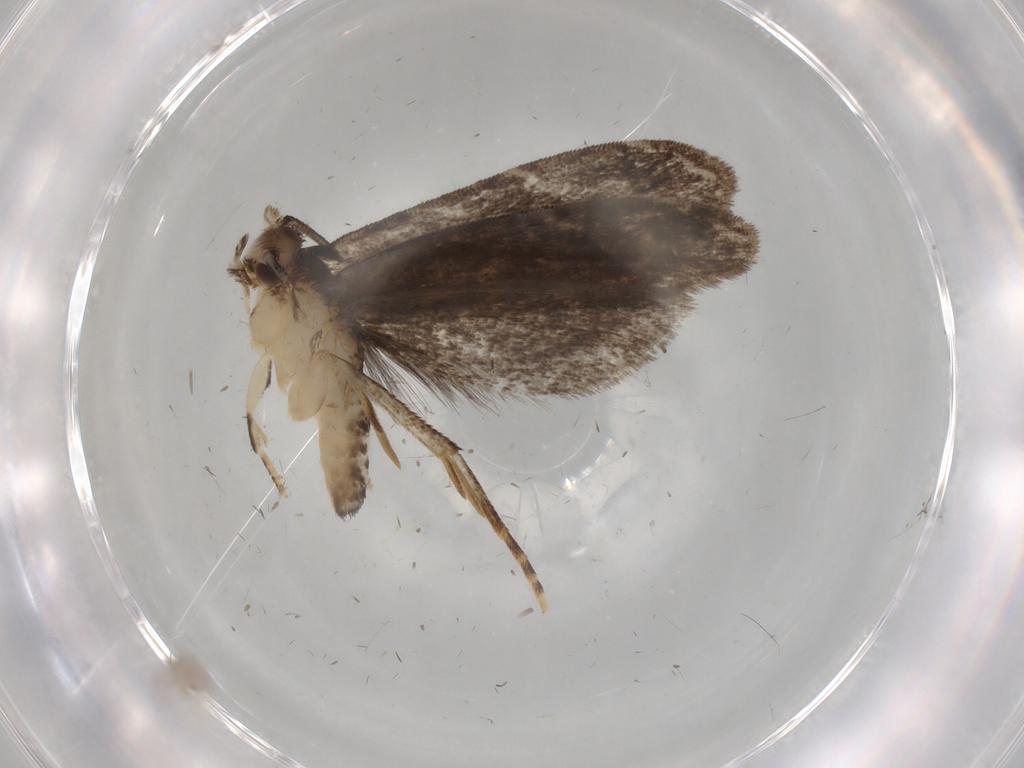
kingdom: Animalia
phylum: Arthropoda
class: Insecta
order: Lepidoptera
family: Dryadaulidae
